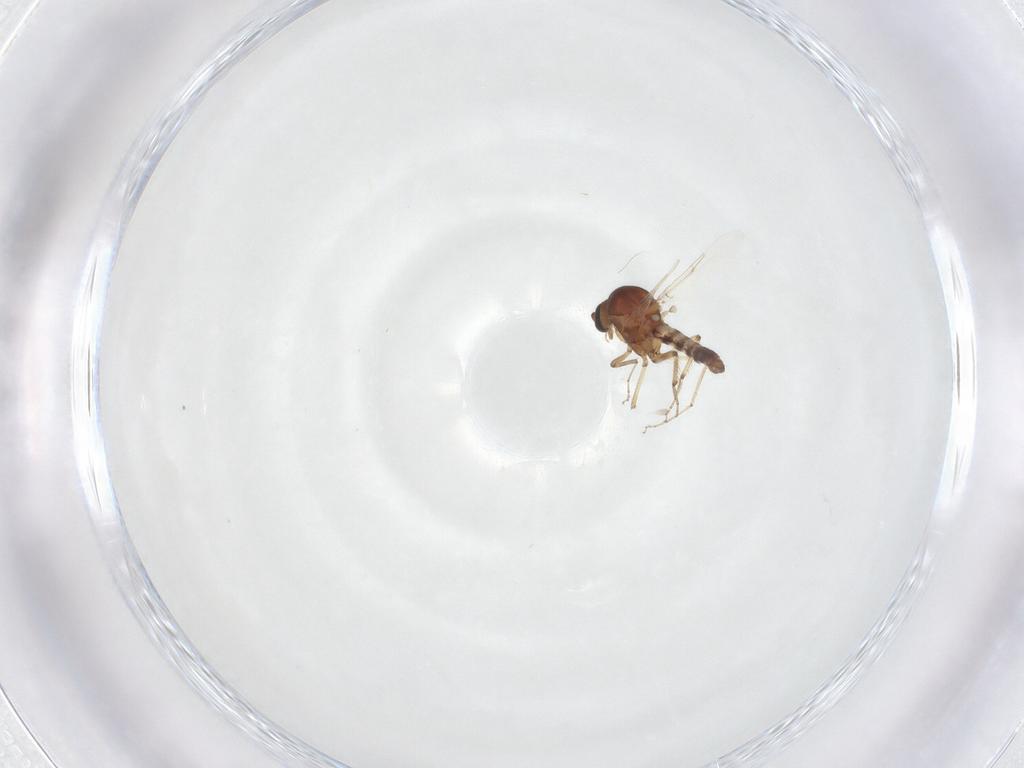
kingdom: Animalia
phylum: Arthropoda
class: Insecta
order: Diptera
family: Ceratopogonidae
